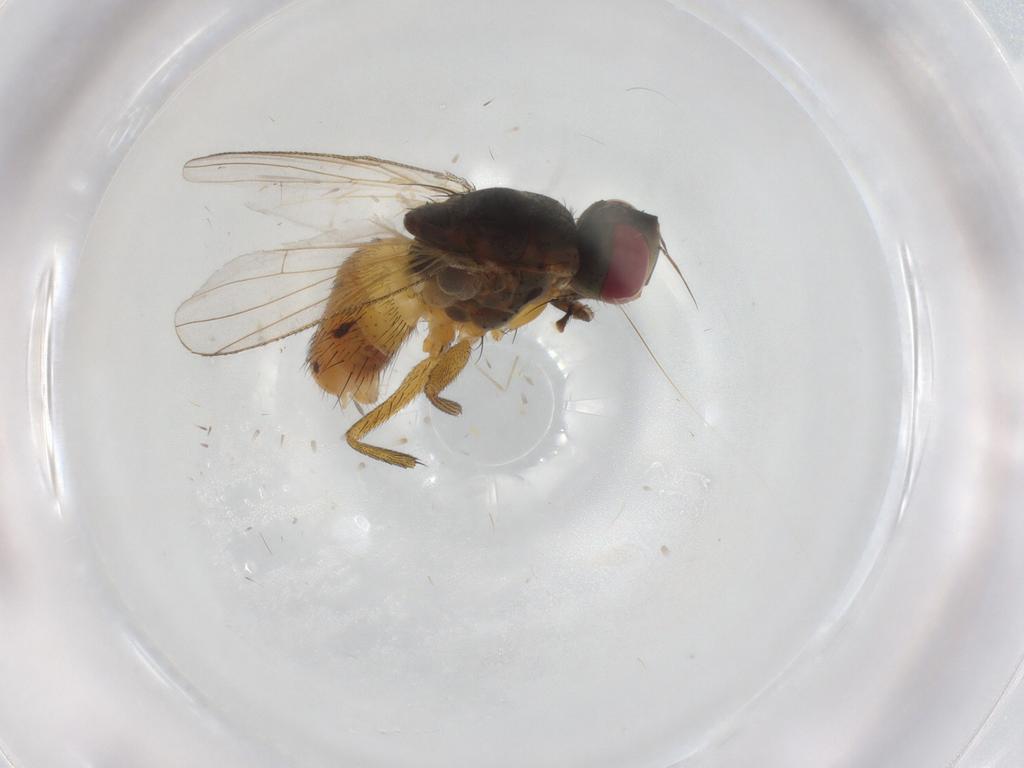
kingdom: Animalia
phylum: Arthropoda
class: Insecta
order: Diptera
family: Muscidae
